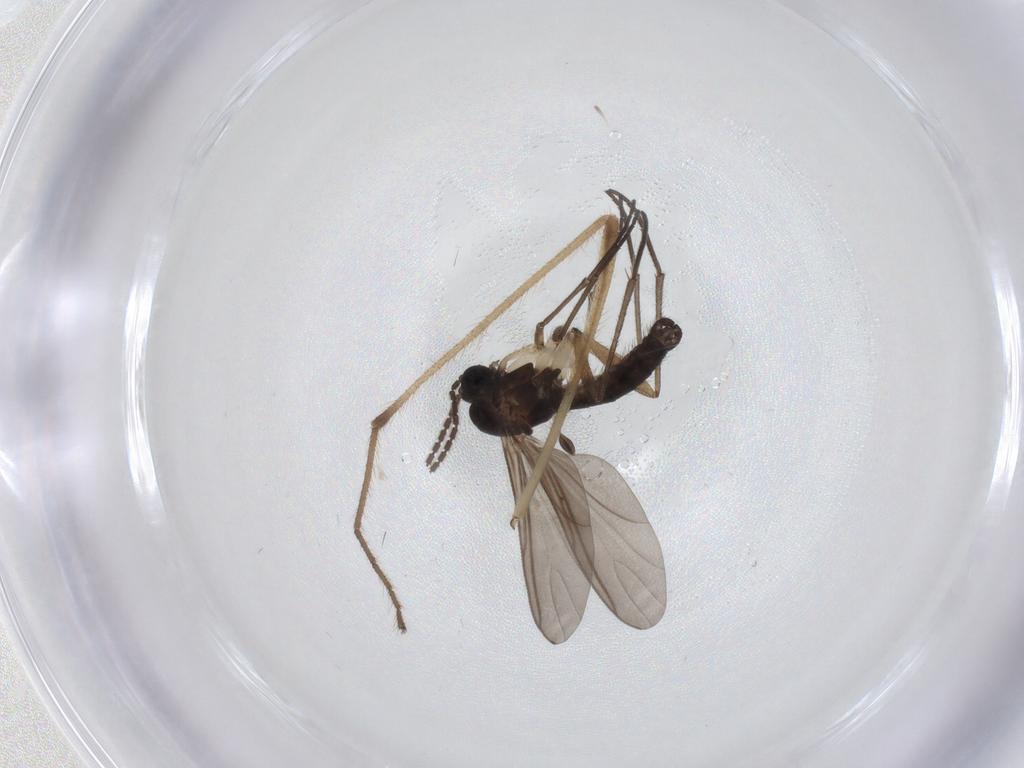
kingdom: Animalia
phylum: Arthropoda
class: Insecta
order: Diptera
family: Sciaridae
